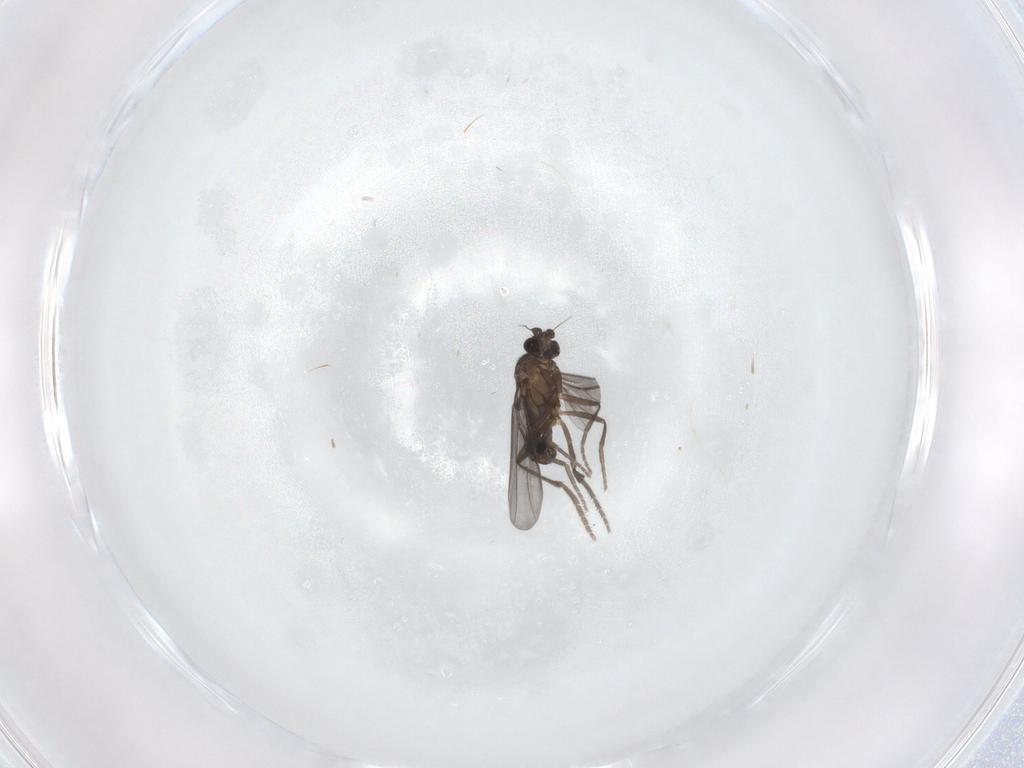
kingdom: Animalia
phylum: Arthropoda
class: Insecta
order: Diptera
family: Phoridae
